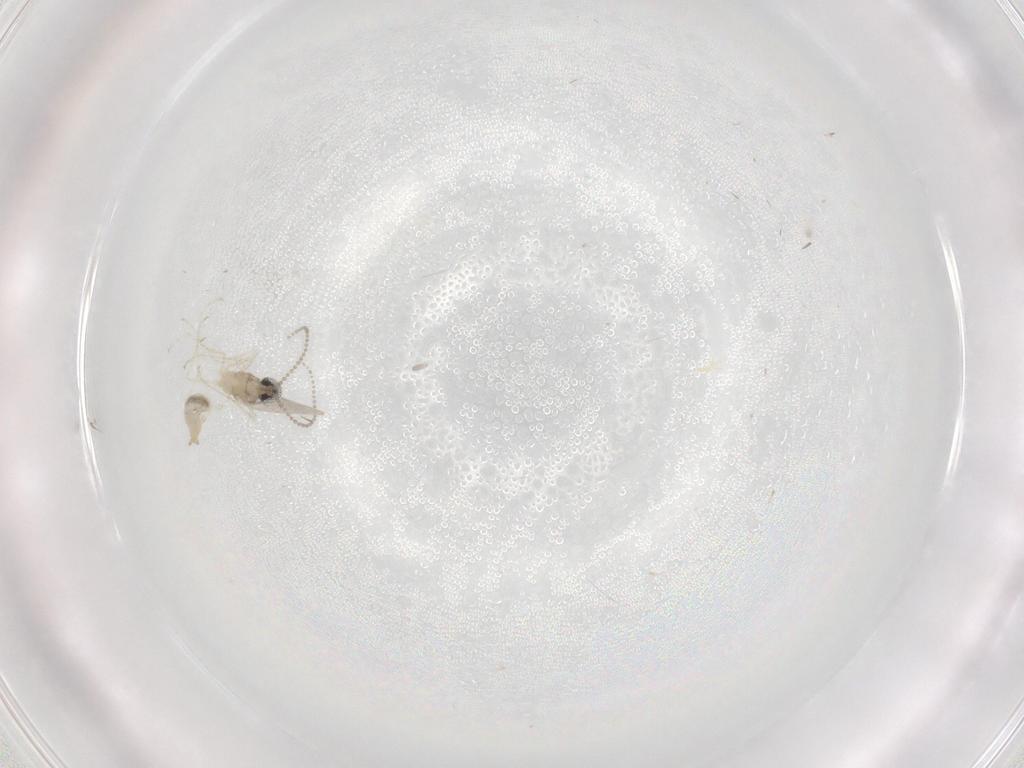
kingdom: Animalia
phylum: Arthropoda
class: Insecta
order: Diptera
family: Cecidomyiidae
